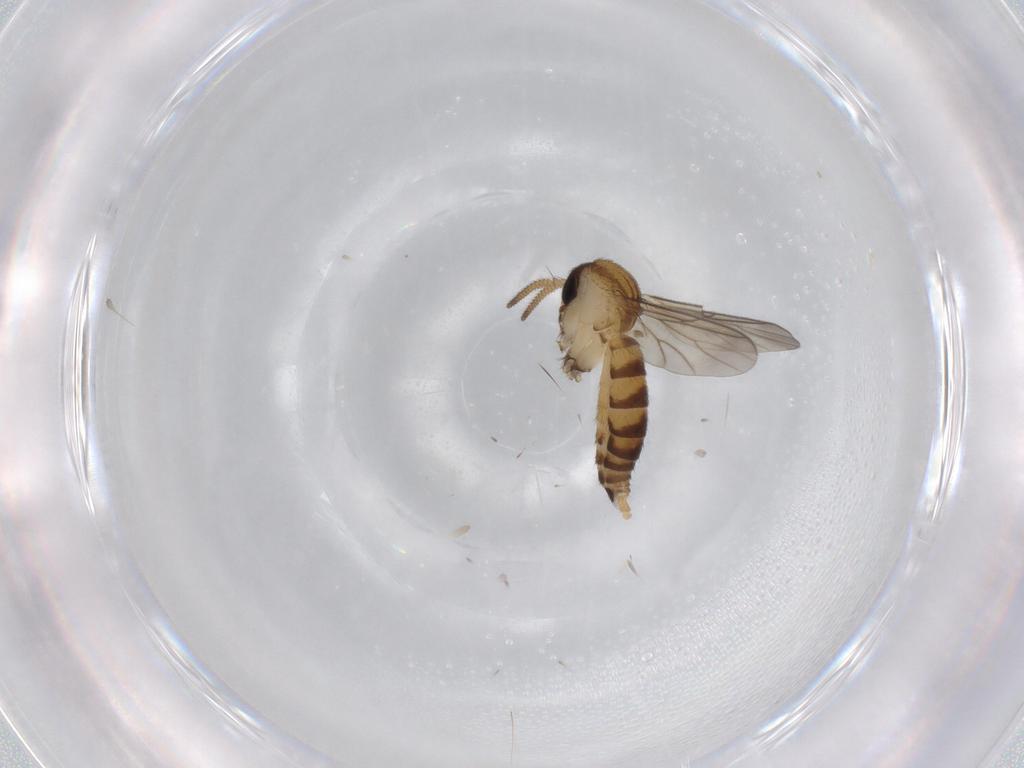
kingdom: Animalia
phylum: Arthropoda
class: Insecta
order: Diptera
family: Mycetophilidae
